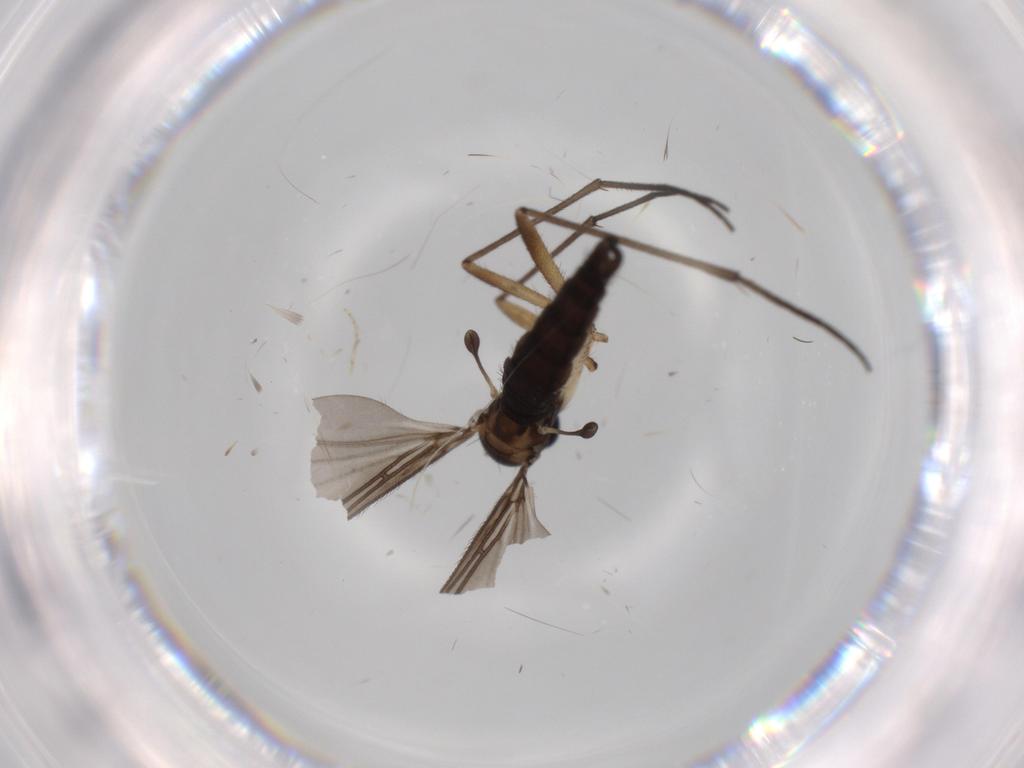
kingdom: Animalia
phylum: Arthropoda
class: Insecta
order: Diptera
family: Sciaridae
